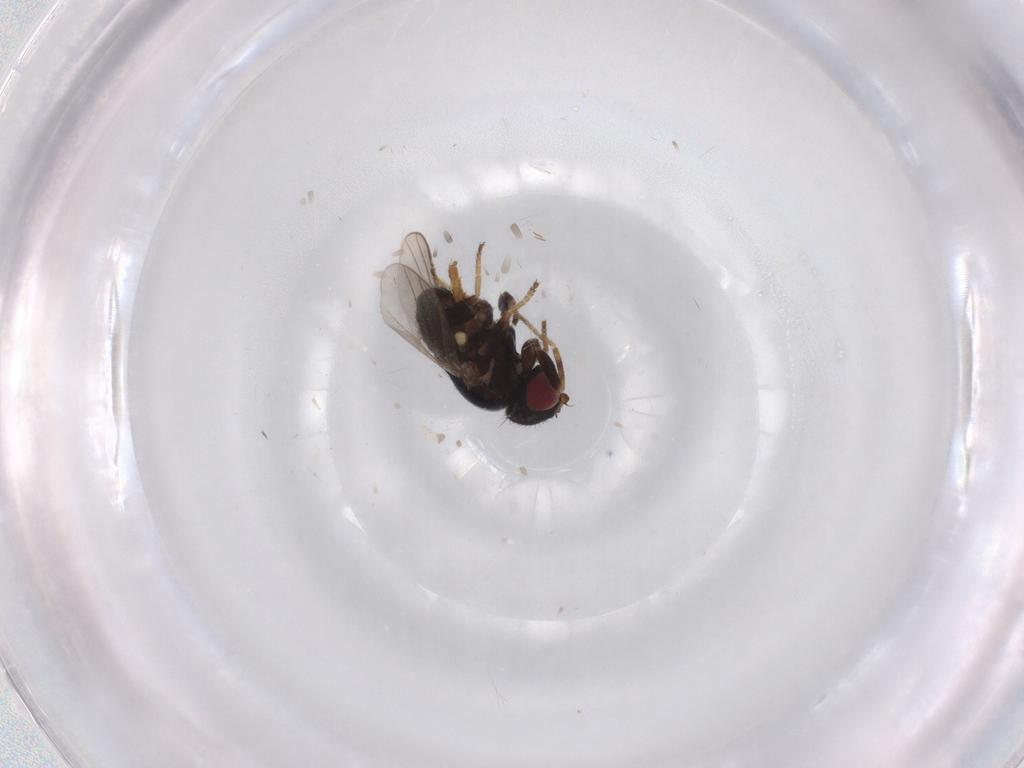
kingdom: Animalia
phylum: Arthropoda
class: Insecta
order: Diptera
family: Chloropidae
